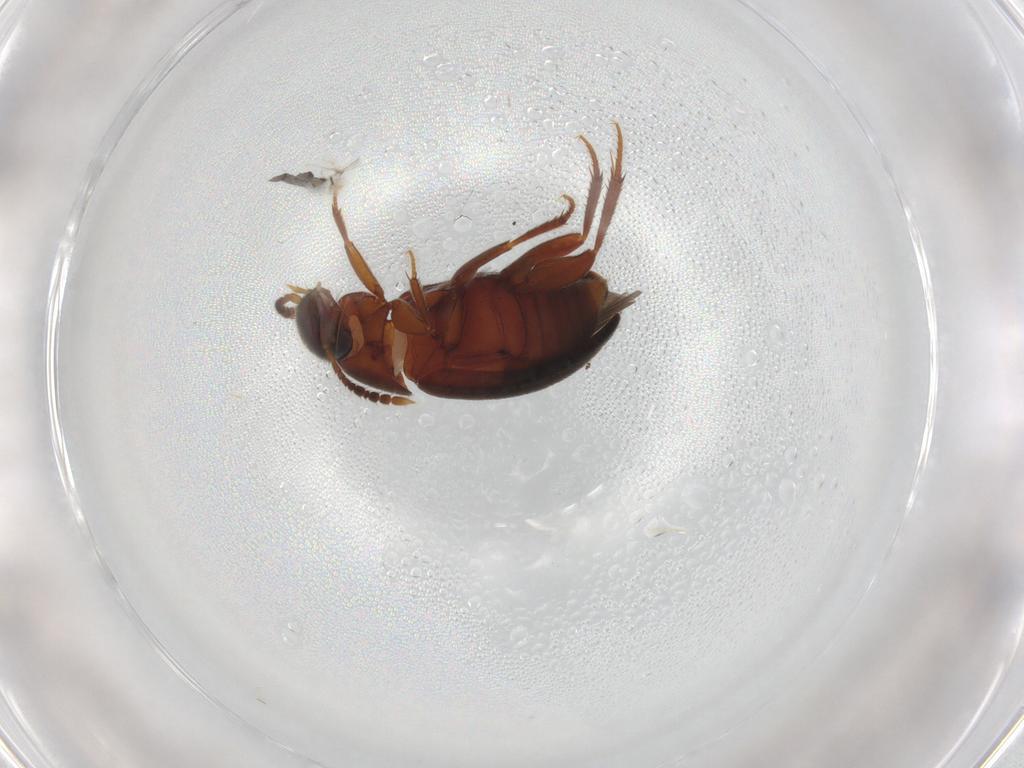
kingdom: Animalia
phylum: Arthropoda
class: Insecta
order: Coleoptera
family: Leiodidae
